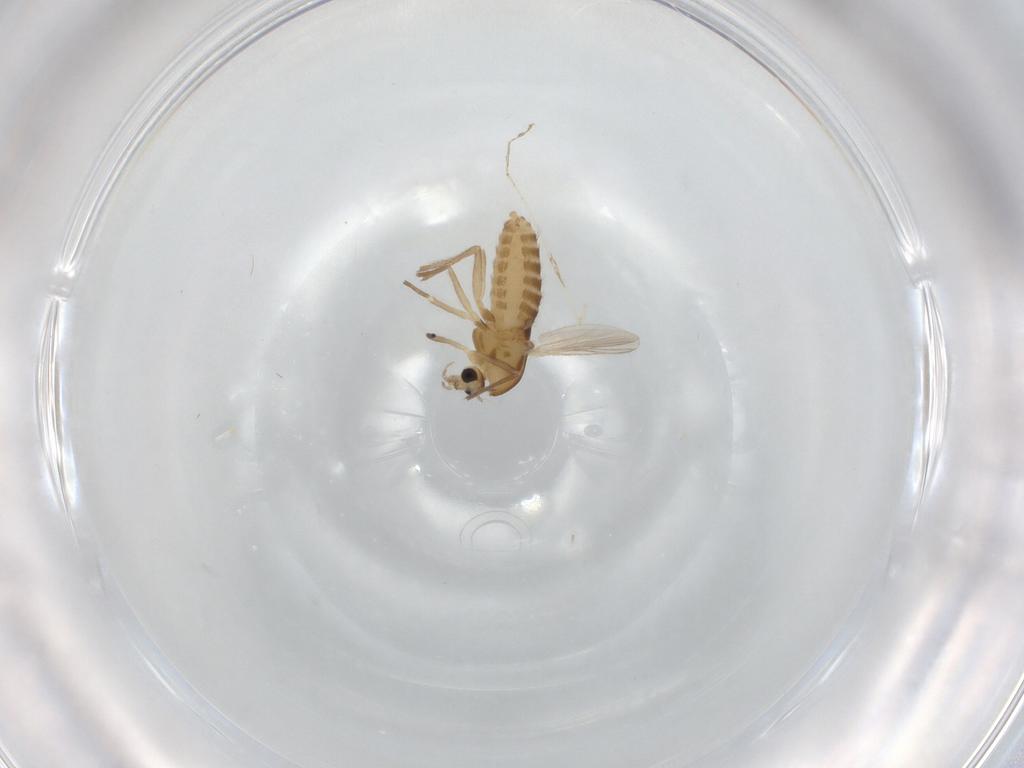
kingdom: Animalia
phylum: Arthropoda
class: Insecta
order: Diptera
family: Chironomidae
